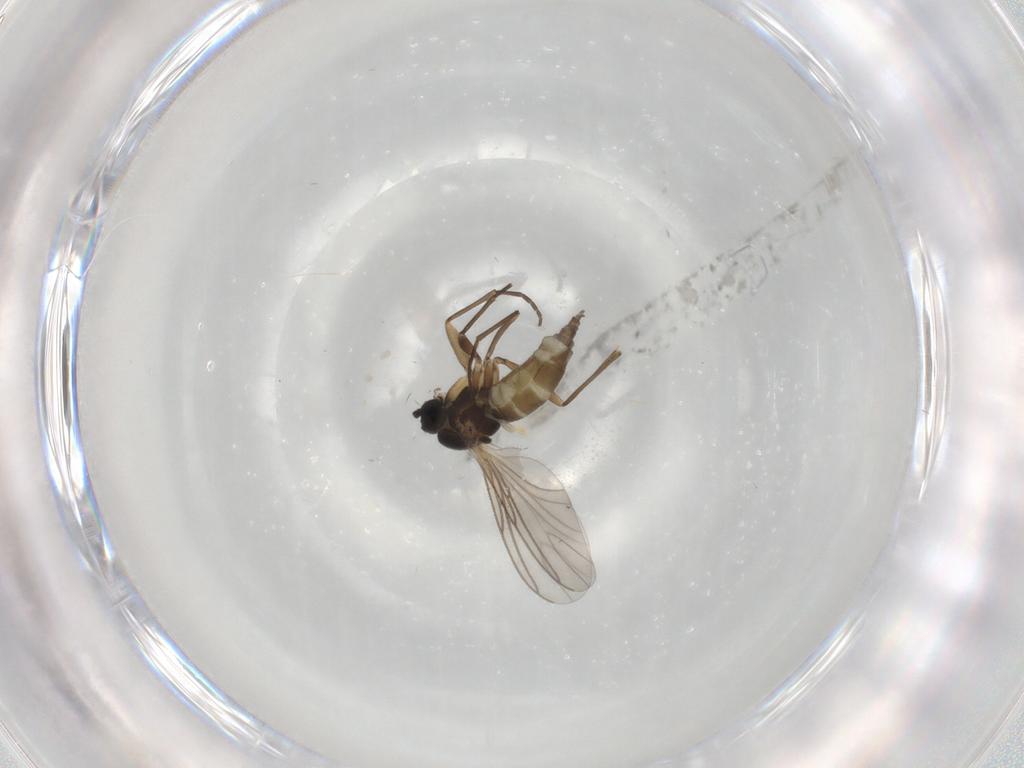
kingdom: Animalia
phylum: Arthropoda
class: Insecta
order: Diptera
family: Sciaridae
